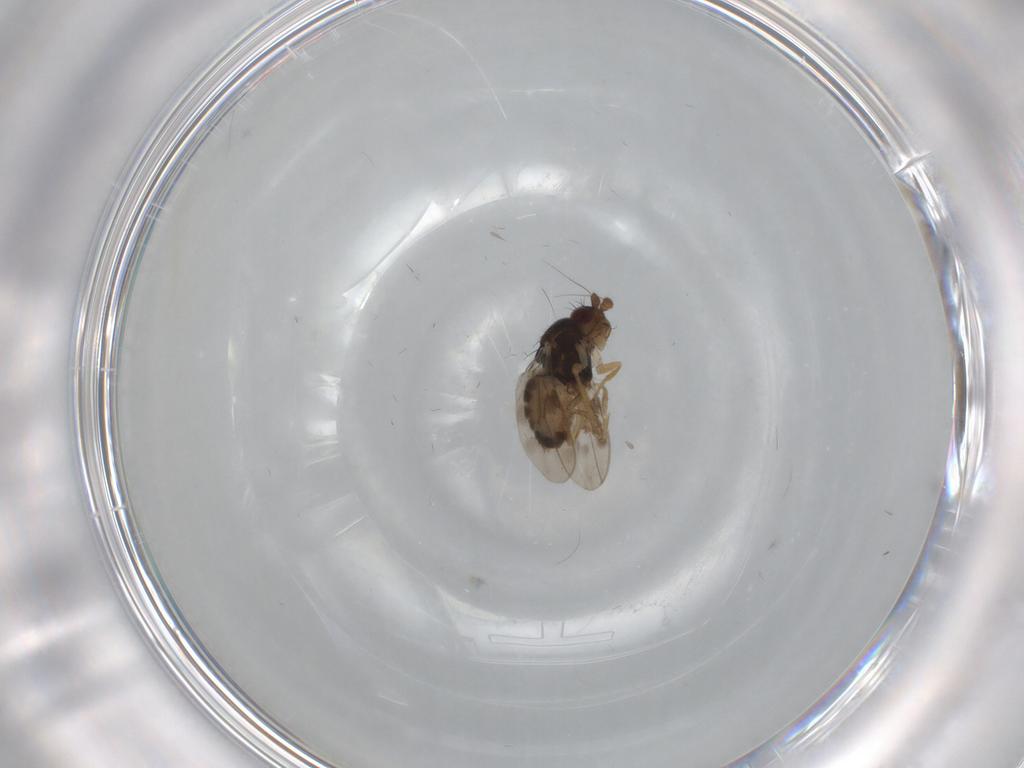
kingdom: Animalia
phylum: Arthropoda
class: Insecta
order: Diptera
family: Sphaeroceridae
